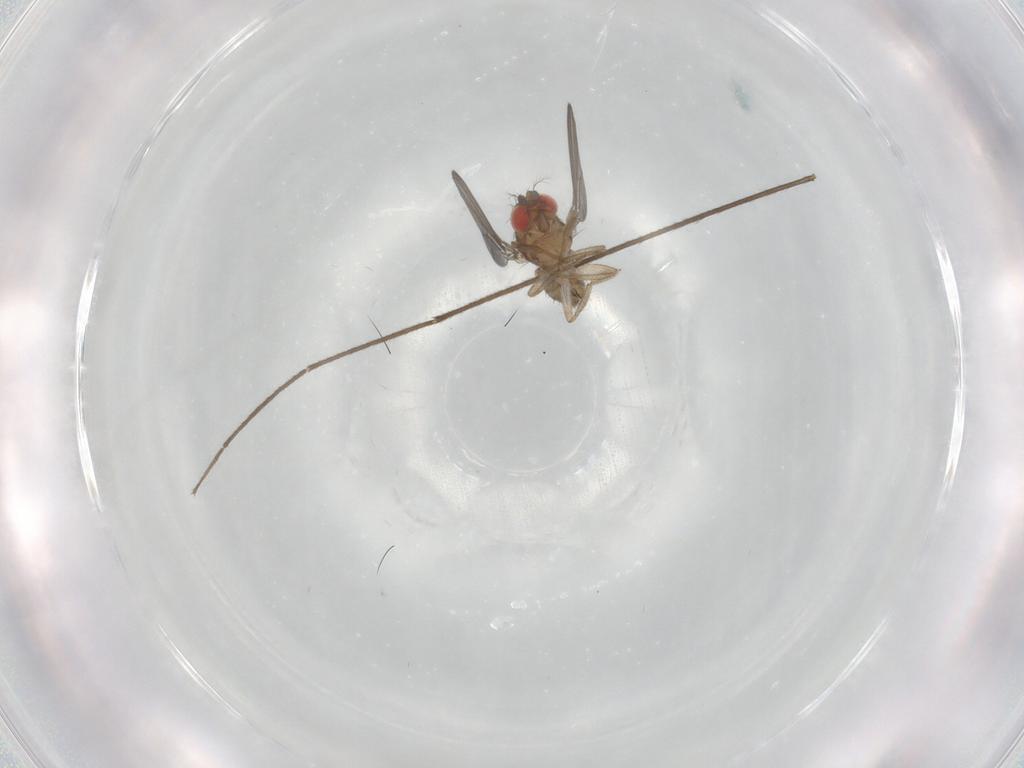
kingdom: Animalia
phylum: Arthropoda
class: Insecta
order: Diptera
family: Chironomidae
